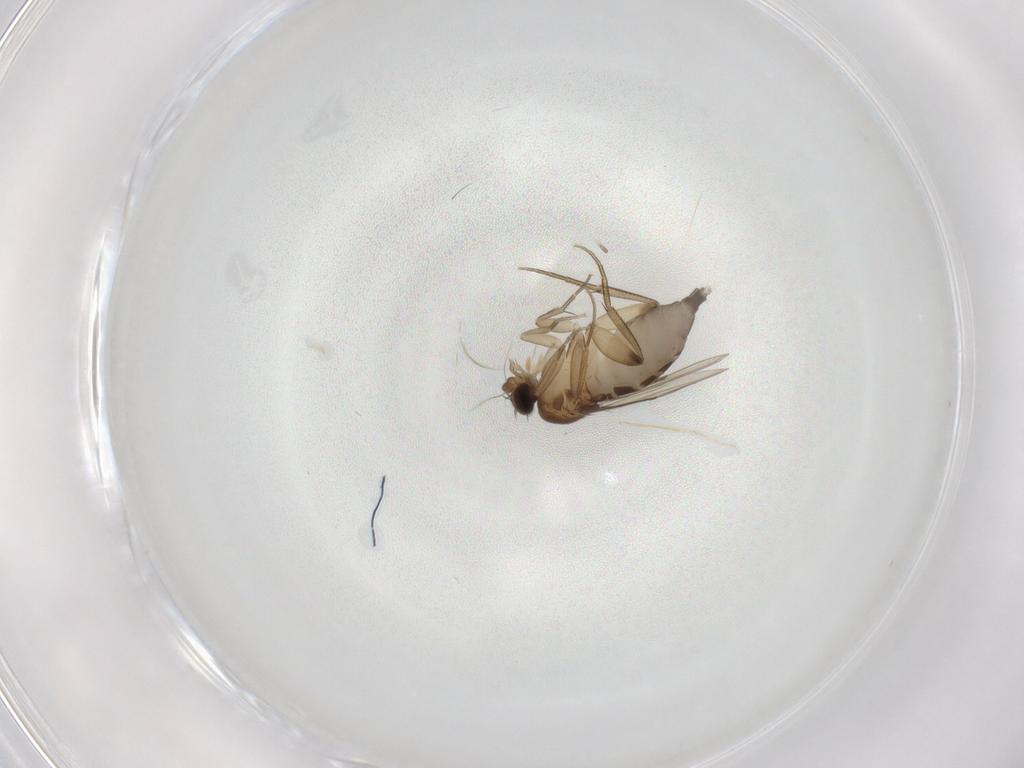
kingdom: Animalia
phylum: Arthropoda
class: Insecta
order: Diptera
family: Phoridae
